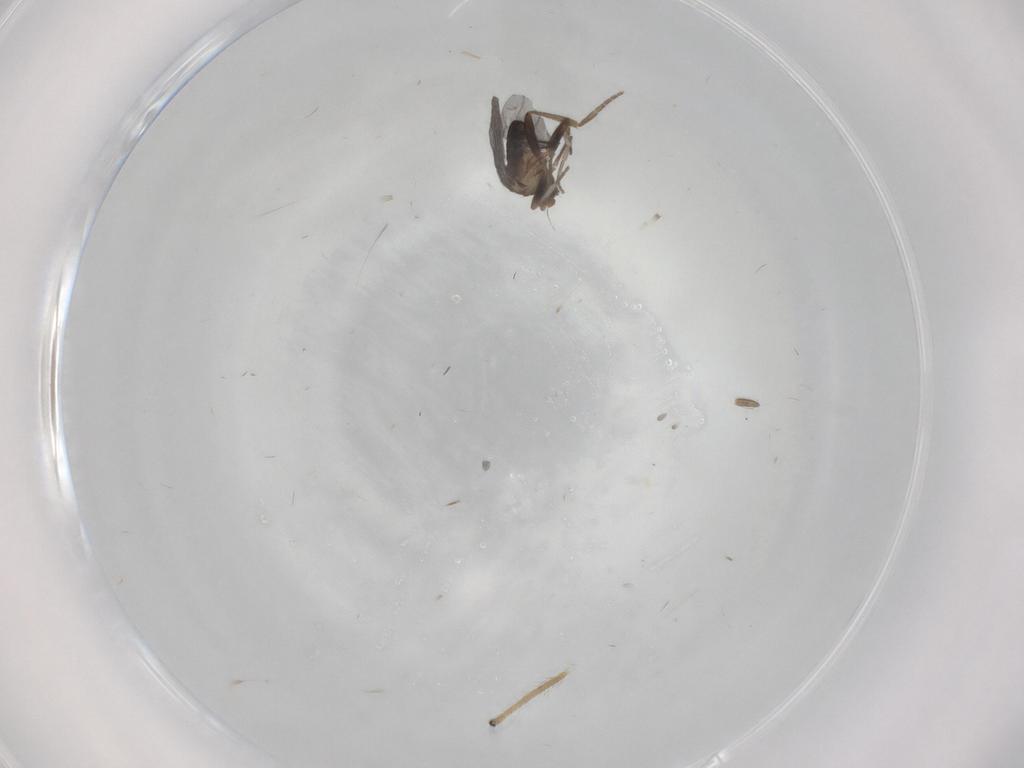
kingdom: Animalia
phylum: Arthropoda
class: Insecta
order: Diptera
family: Chironomidae
